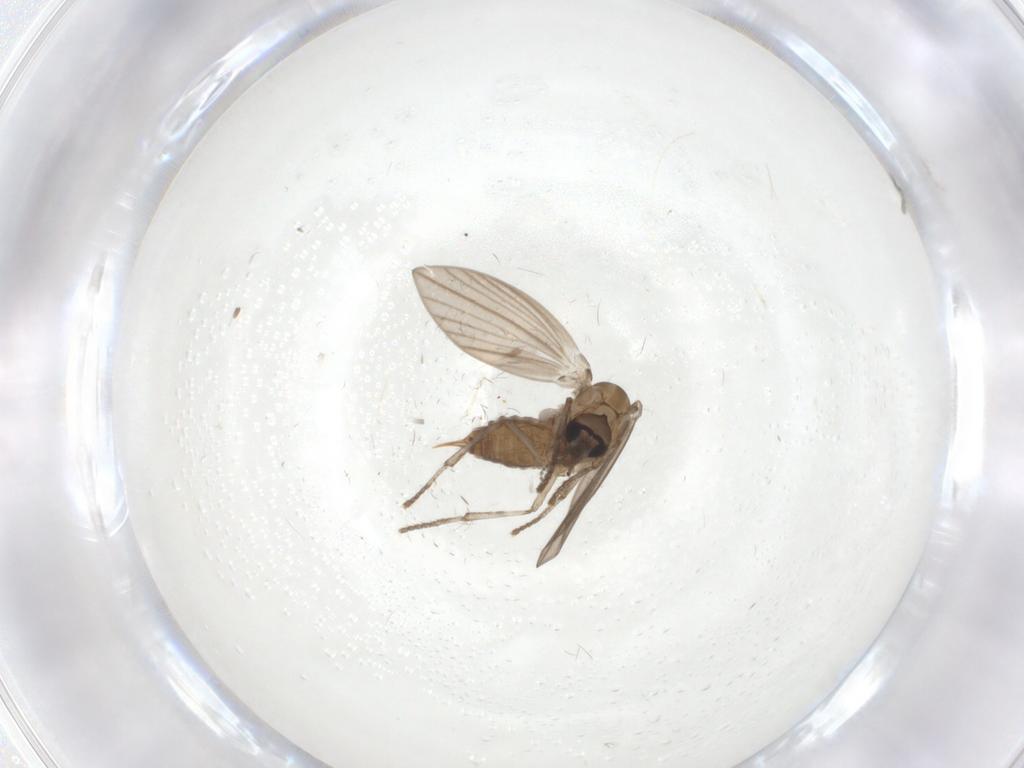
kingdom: Animalia
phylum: Arthropoda
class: Insecta
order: Diptera
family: Psychodidae
